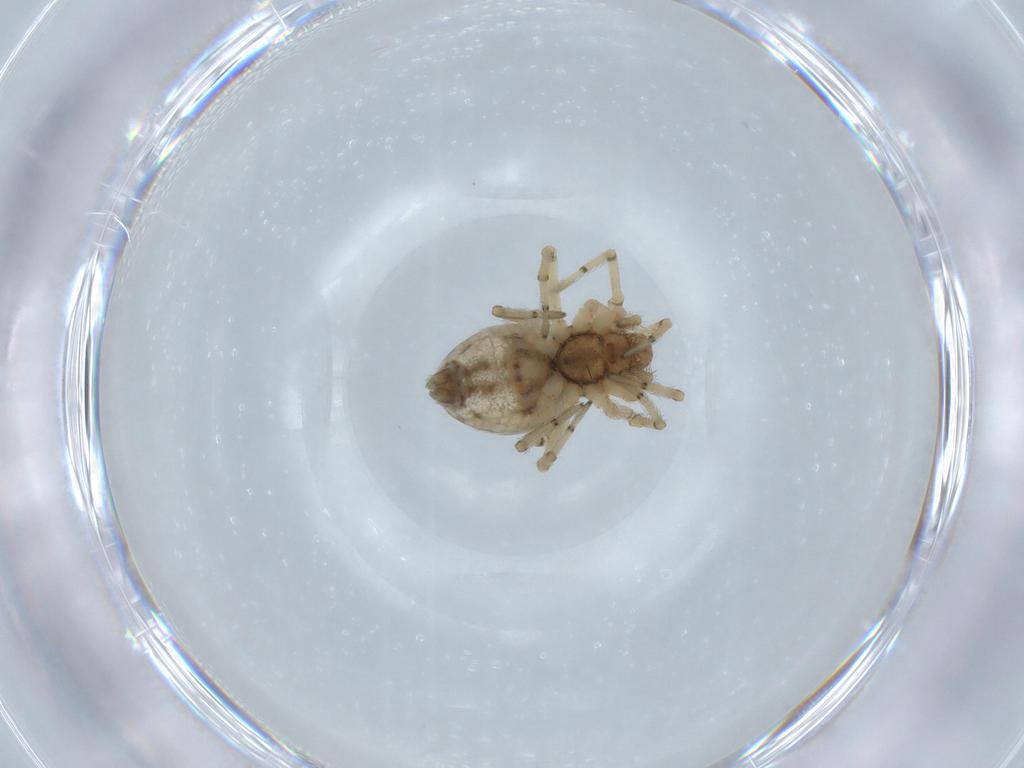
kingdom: Animalia
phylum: Arthropoda
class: Arachnida
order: Araneae
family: Dictynidae
